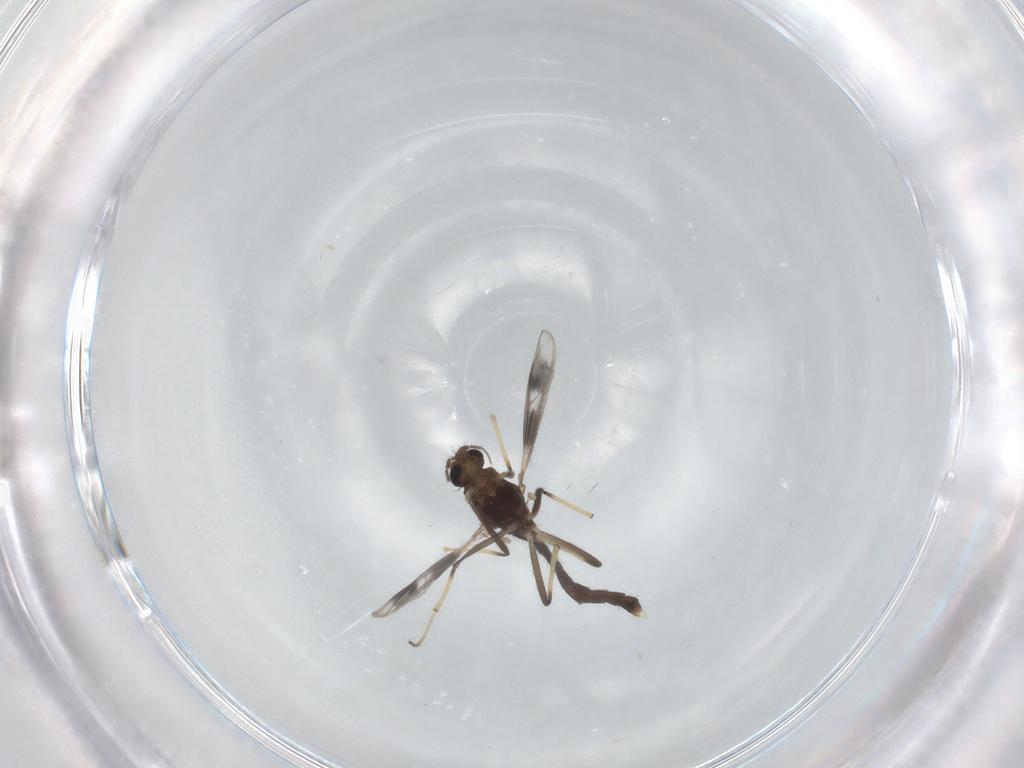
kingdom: Animalia
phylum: Arthropoda
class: Insecta
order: Diptera
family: Chironomidae
